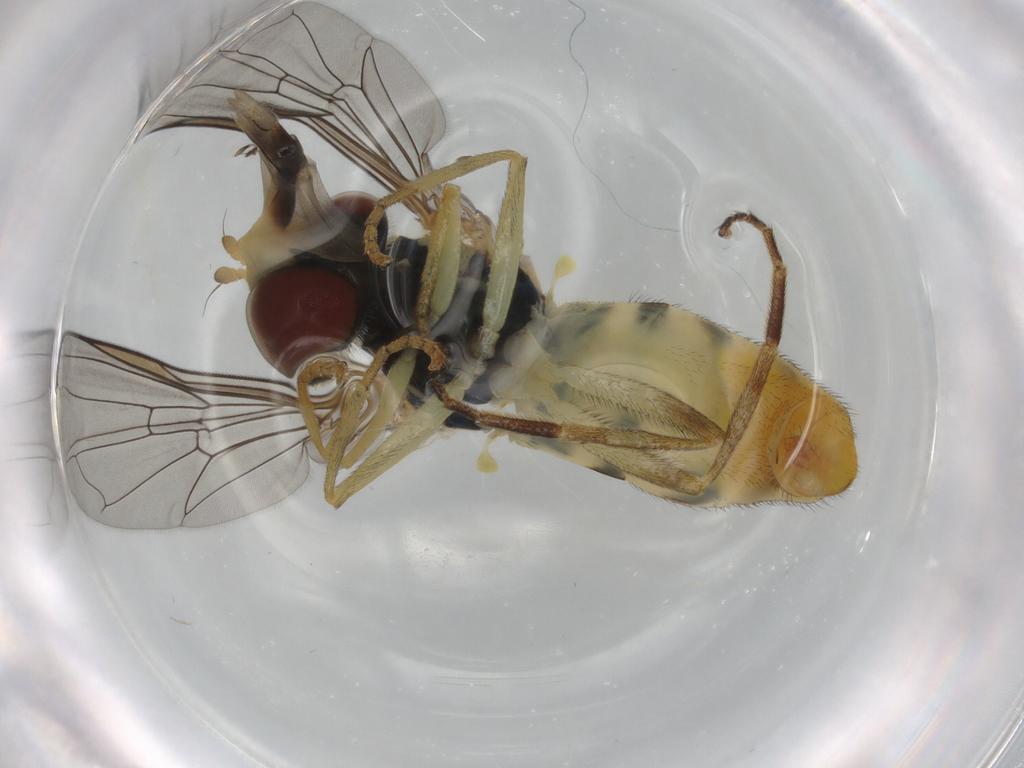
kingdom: Animalia
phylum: Arthropoda
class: Insecta
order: Diptera
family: Syrphidae
